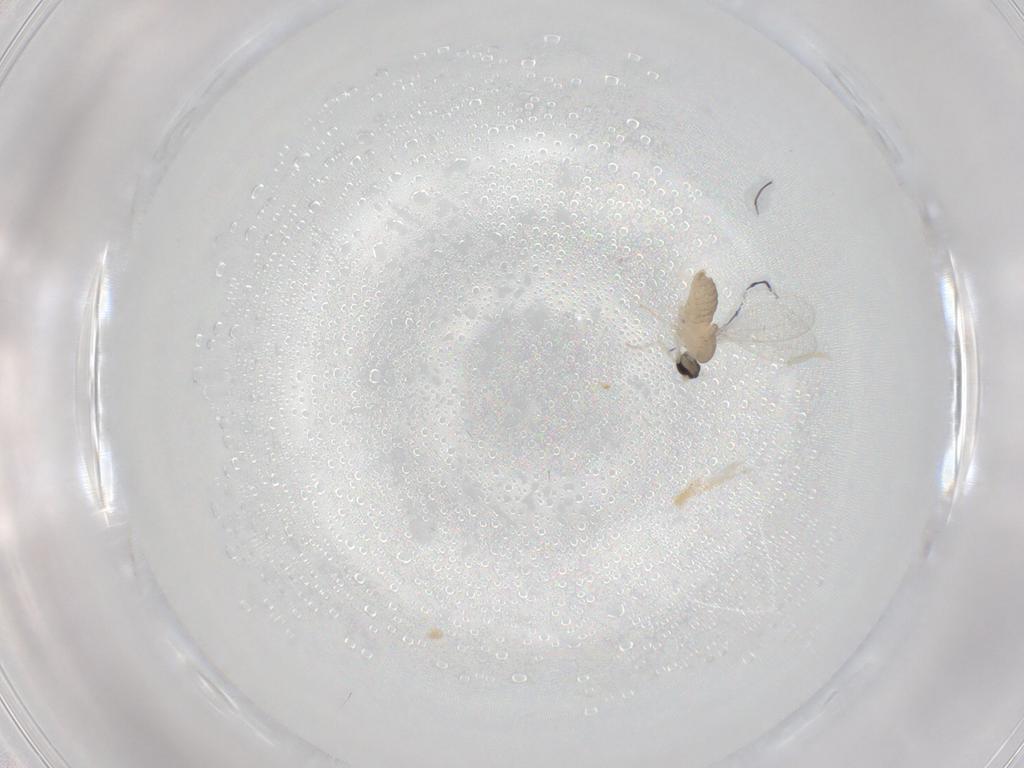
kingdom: Animalia
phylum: Arthropoda
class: Insecta
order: Diptera
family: Cecidomyiidae
